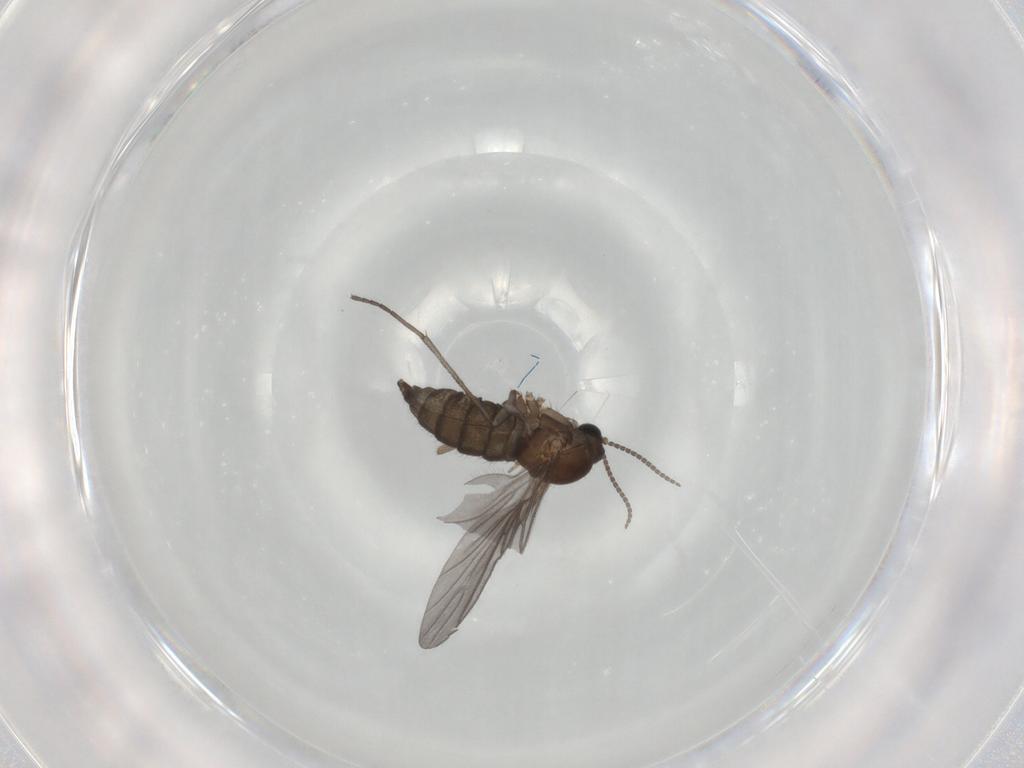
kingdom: Animalia
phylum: Arthropoda
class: Insecta
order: Diptera
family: Sciaridae
